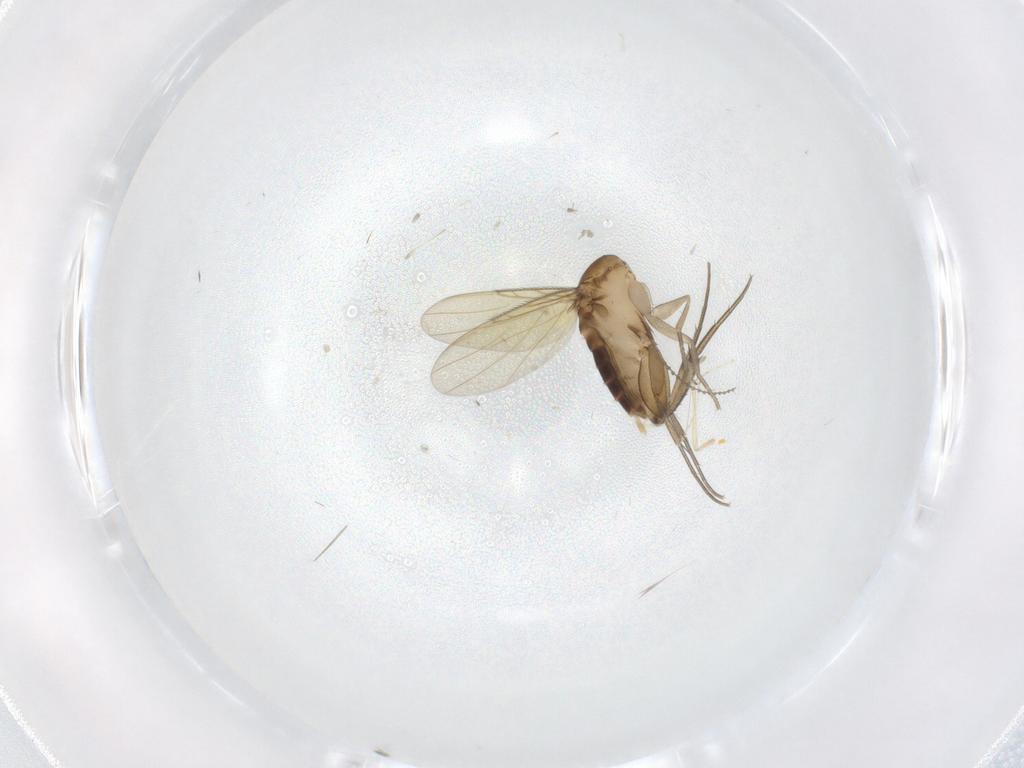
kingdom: Animalia
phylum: Arthropoda
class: Insecta
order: Diptera
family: Phoridae
